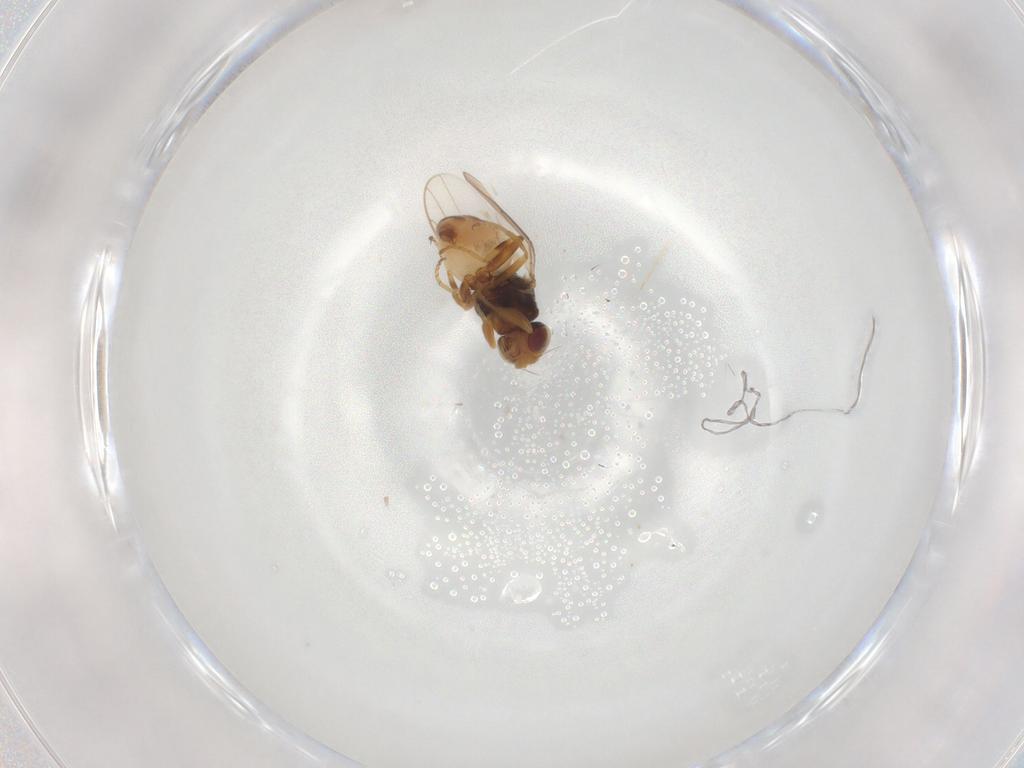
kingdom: Animalia
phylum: Arthropoda
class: Insecta
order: Diptera
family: Chloropidae
